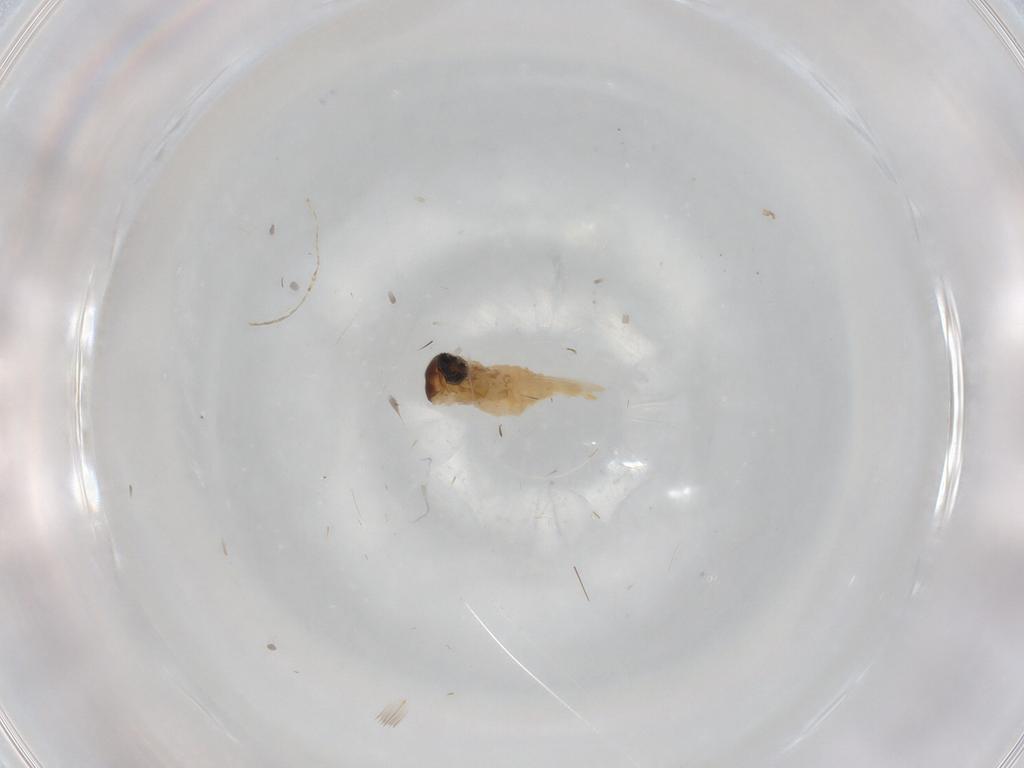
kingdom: Animalia
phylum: Arthropoda
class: Insecta
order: Diptera
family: Cecidomyiidae
